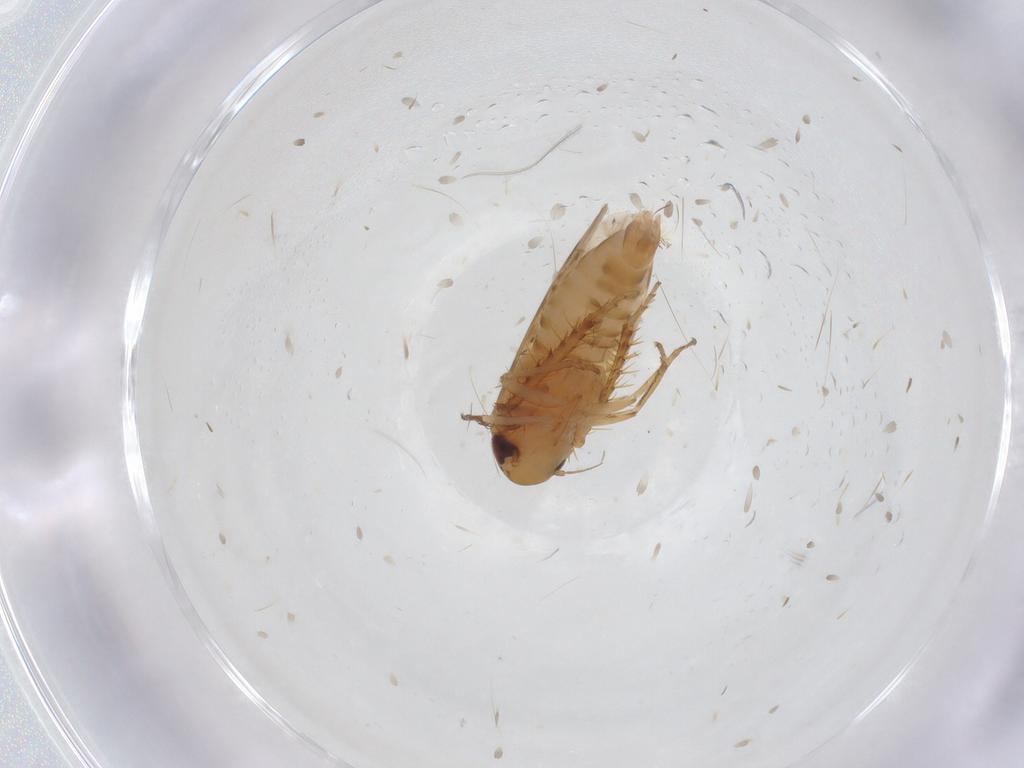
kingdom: Animalia
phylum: Arthropoda
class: Insecta
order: Hemiptera
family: Cicadellidae
